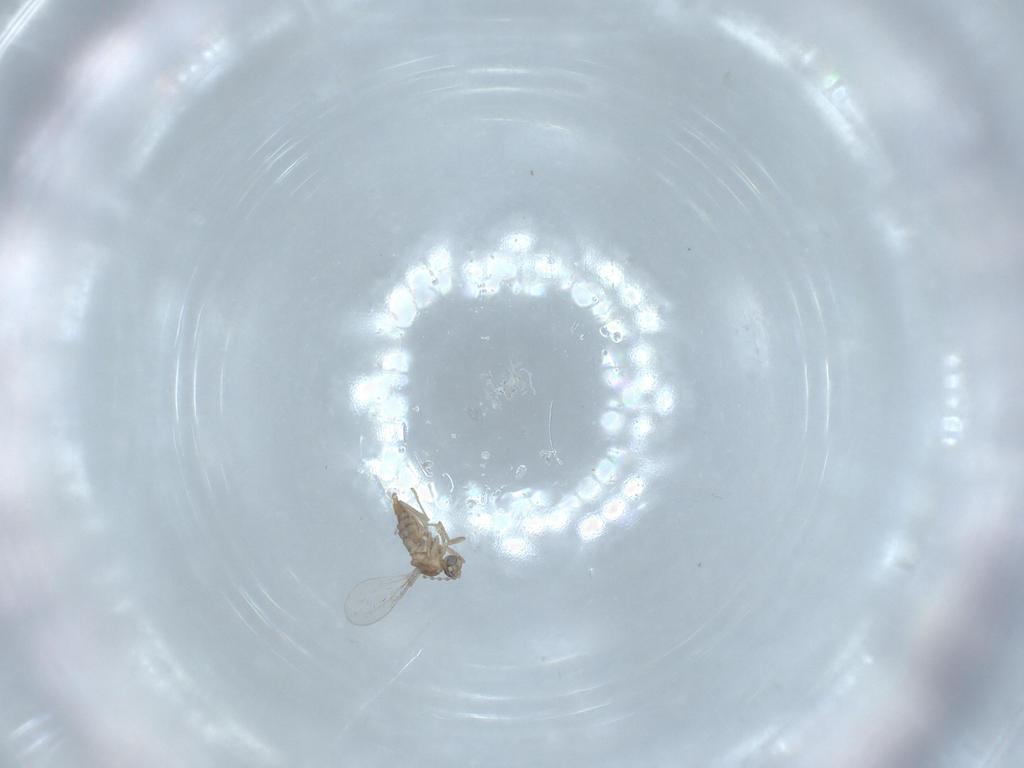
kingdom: Animalia
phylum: Arthropoda
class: Insecta
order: Diptera
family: Cecidomyiidae
